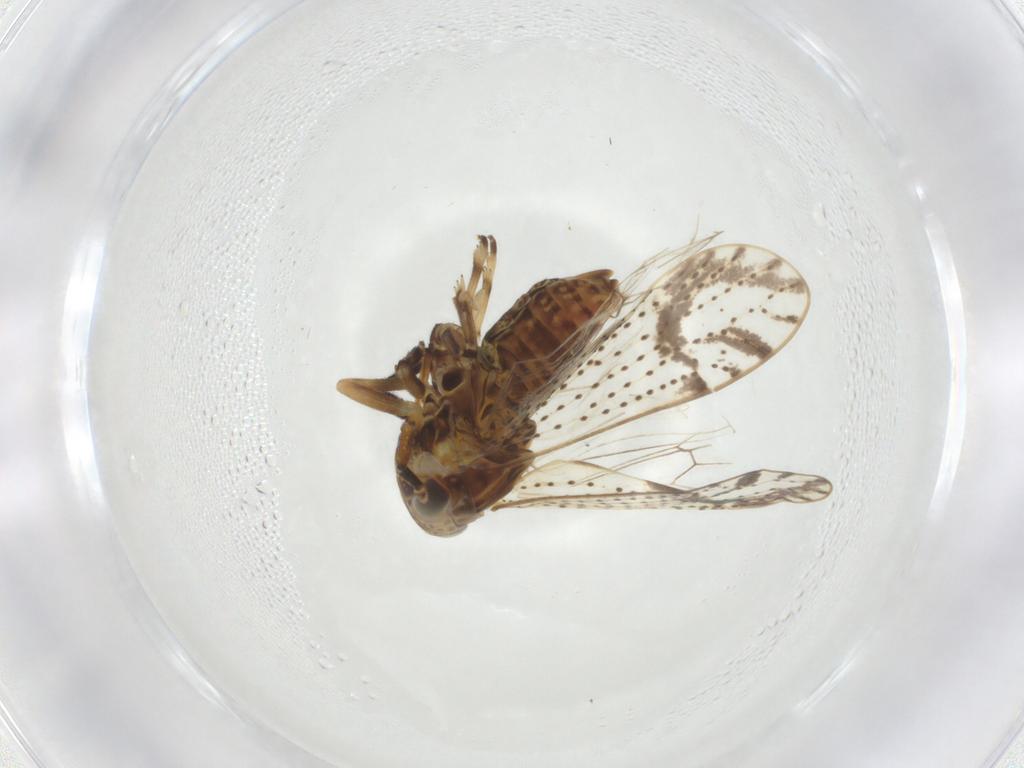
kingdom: Animalia
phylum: Arthropoda
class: Insecta
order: Hemiptera
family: Delphacidae
